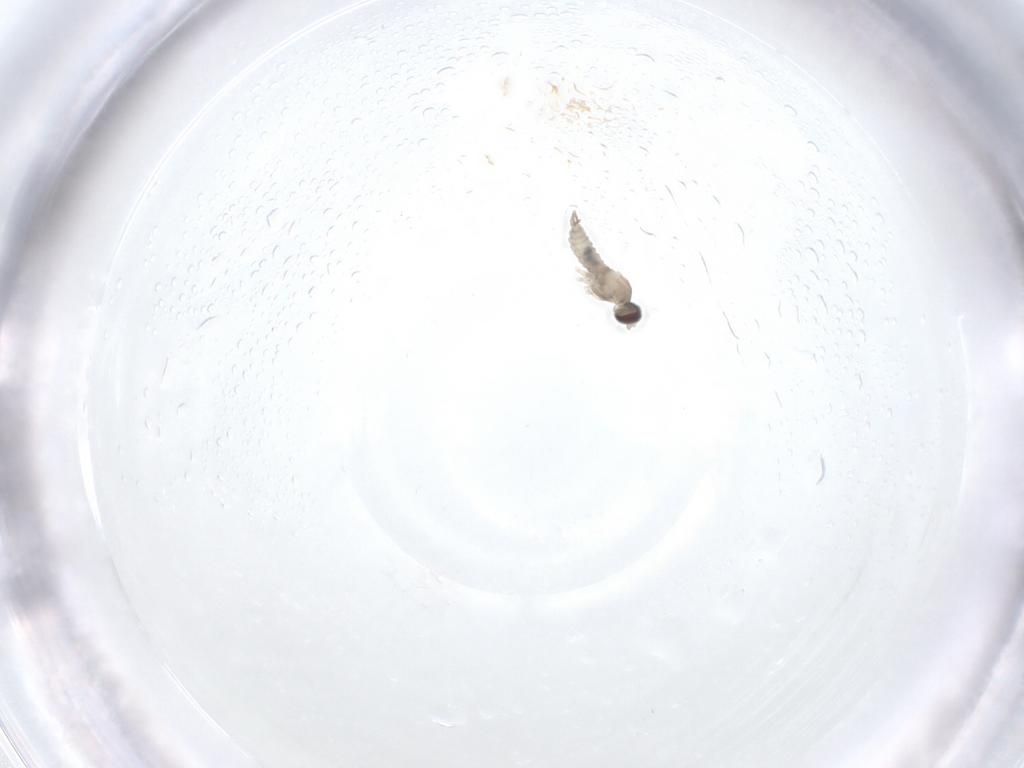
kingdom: Animalia
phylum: Arthropoda
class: Insecta
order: Diptera
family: Cecidomyiidae
